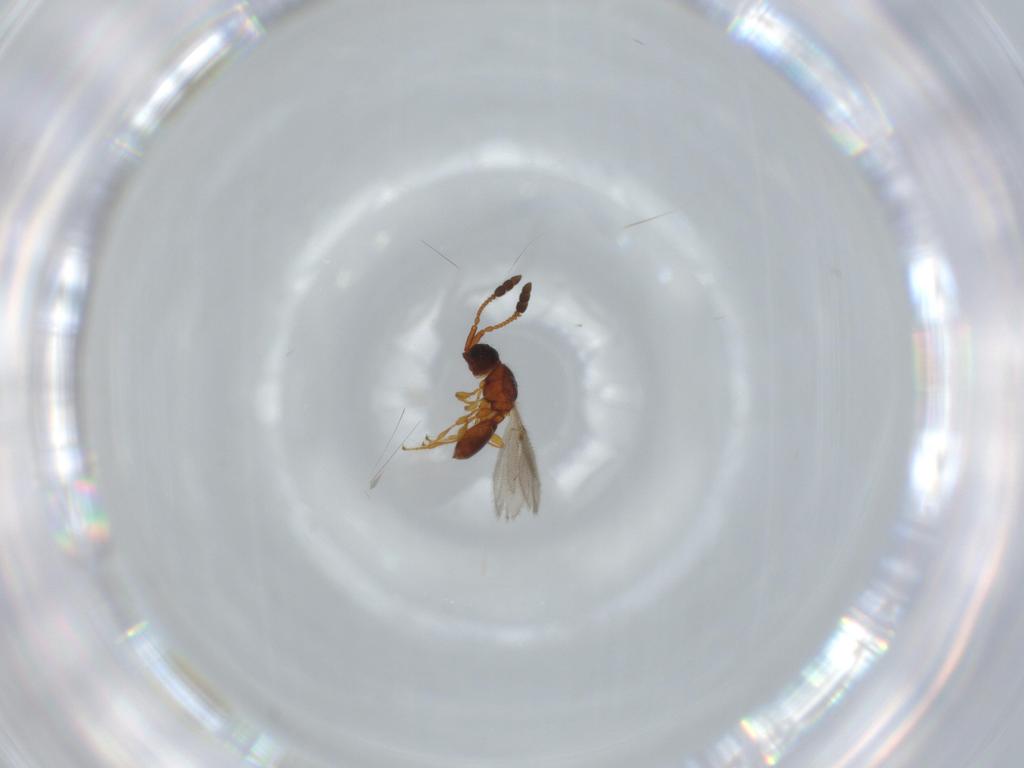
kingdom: Animalia
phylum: Arthropoda
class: Insecta
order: Hymenoptera
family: Diapriidae
